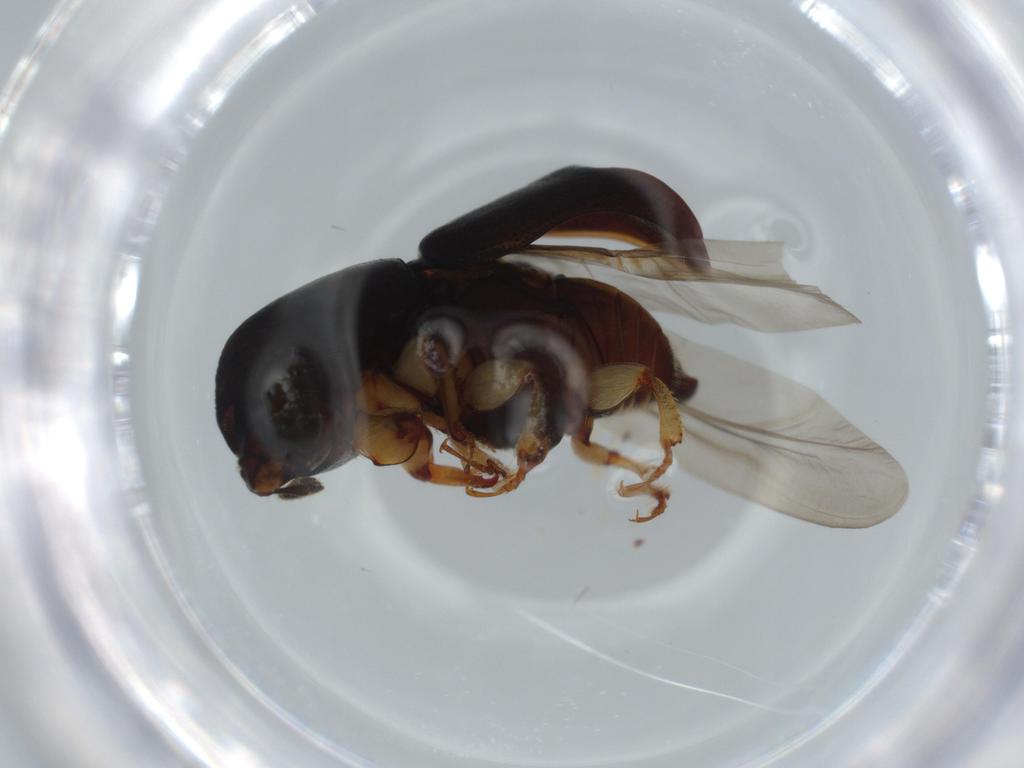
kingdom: Animalia
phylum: Arthropoda
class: Insecta
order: Coleoptera
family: Curculionidae
